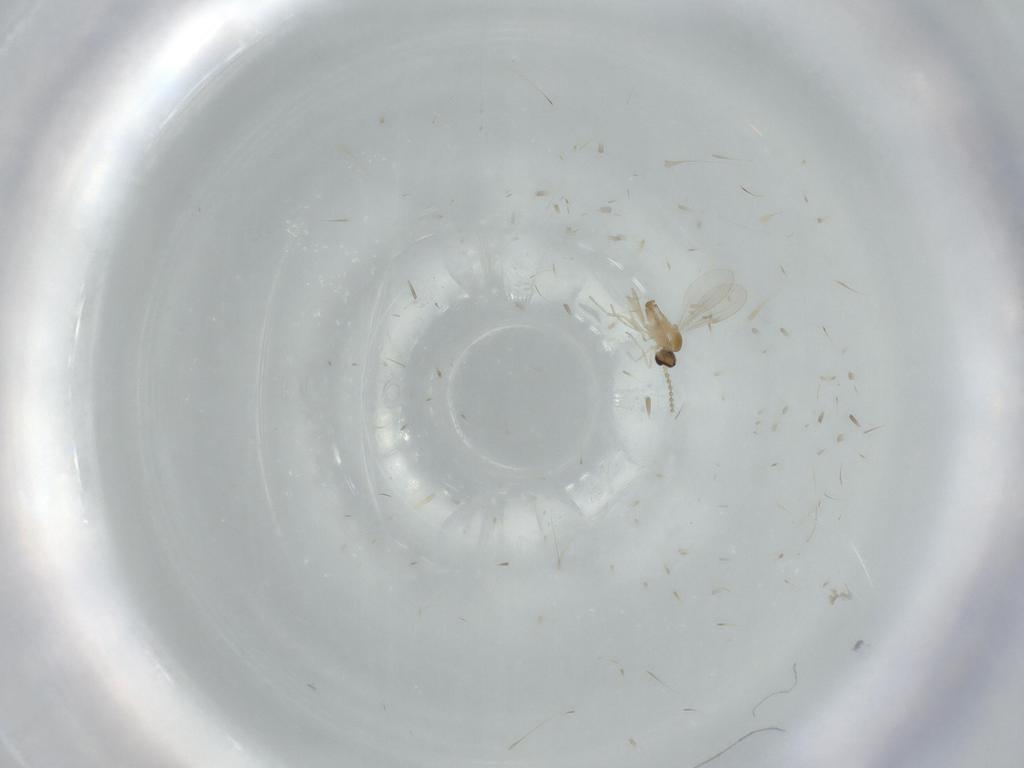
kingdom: Animalia
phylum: Arthropoda
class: Insecta
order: Diptera
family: Cecidomyiidae
